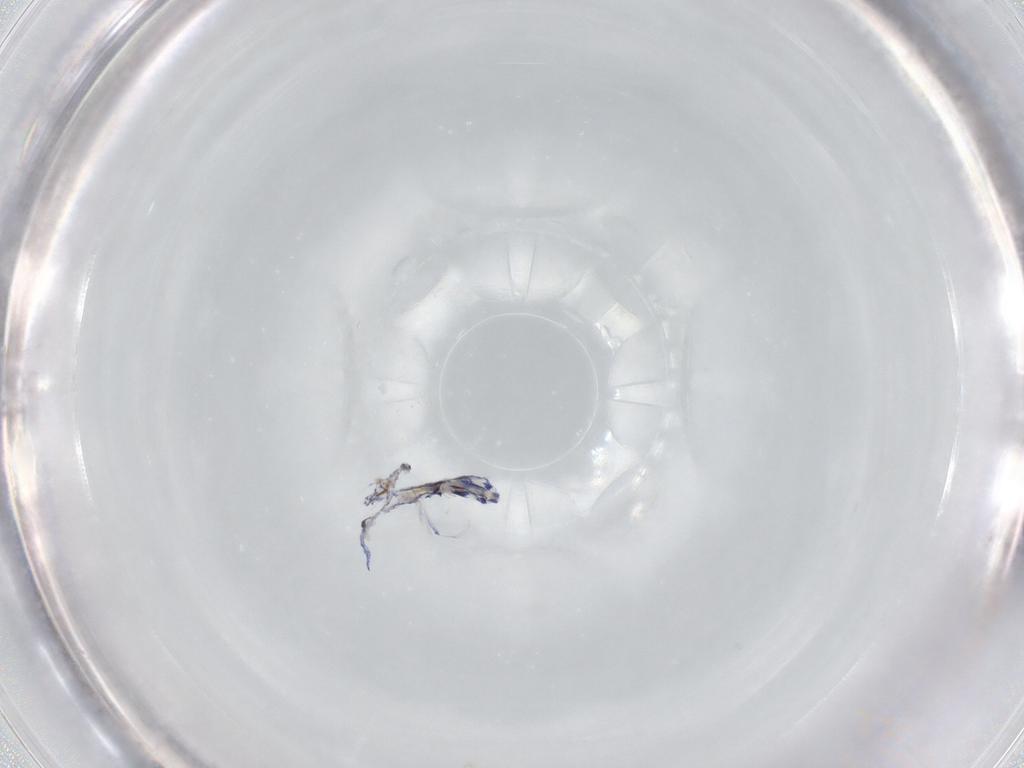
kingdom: Animalia
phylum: Arthropoda
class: Collembola
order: Entomobryomorpha
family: Entomobryidae
